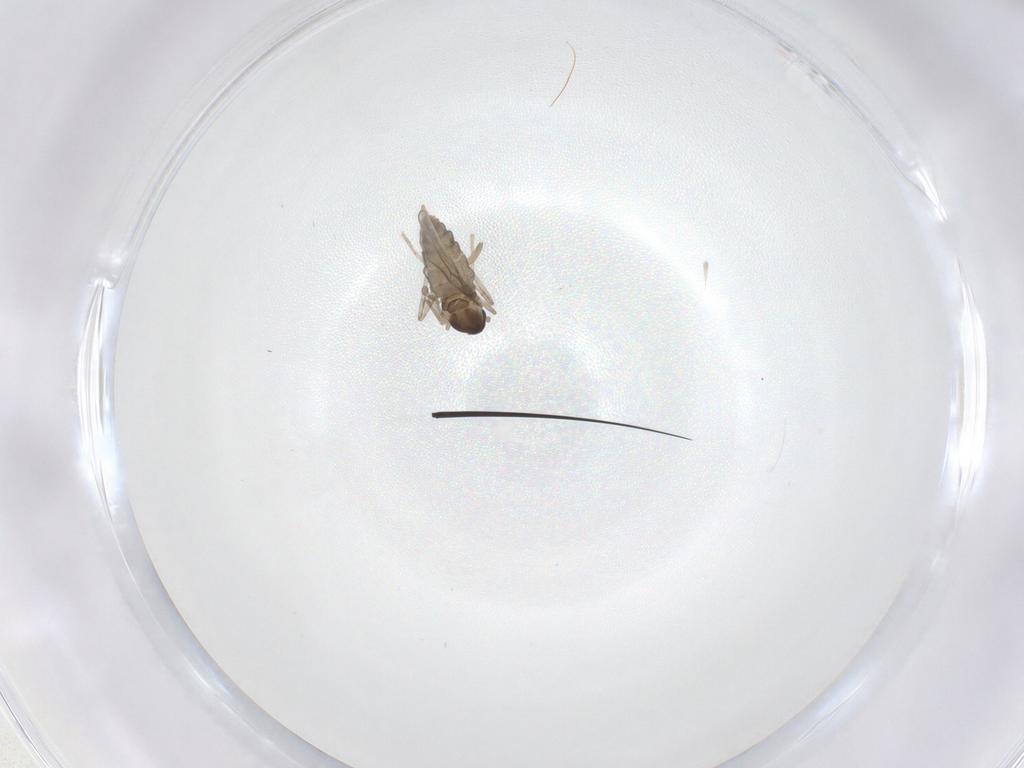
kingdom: Animalia
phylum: Arthropoda
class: Insecta
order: Diptera
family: Cecidomyiidae
